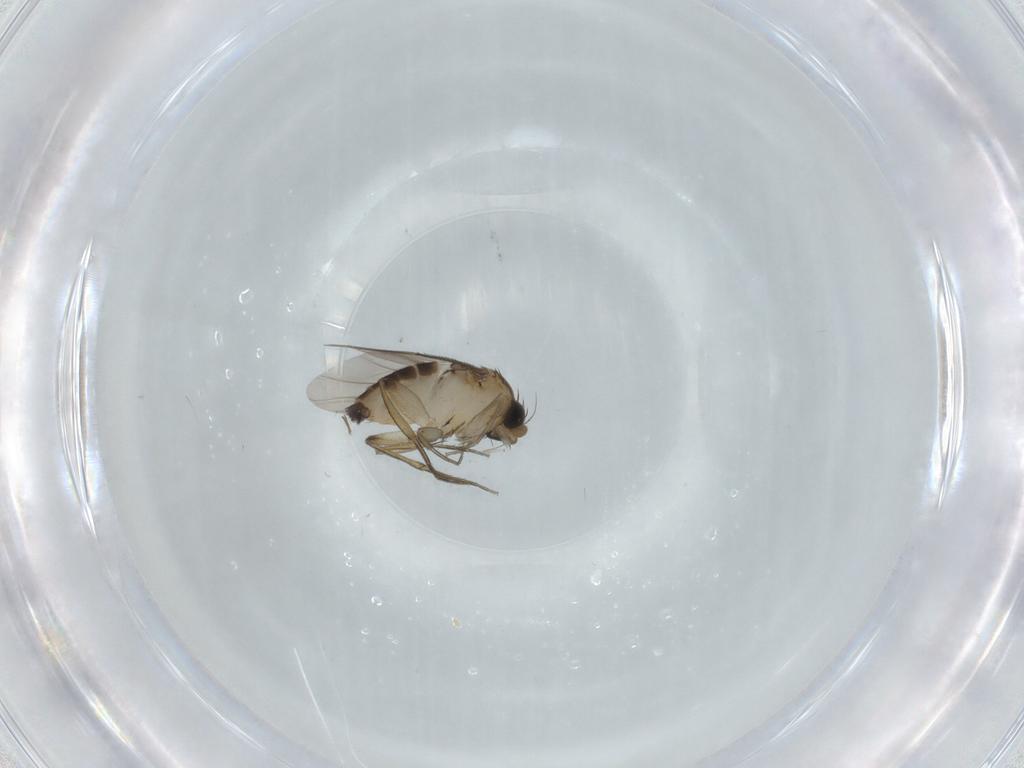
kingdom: Animalia
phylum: Arthropoda
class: Insecta
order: Diptera
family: Phoridae
